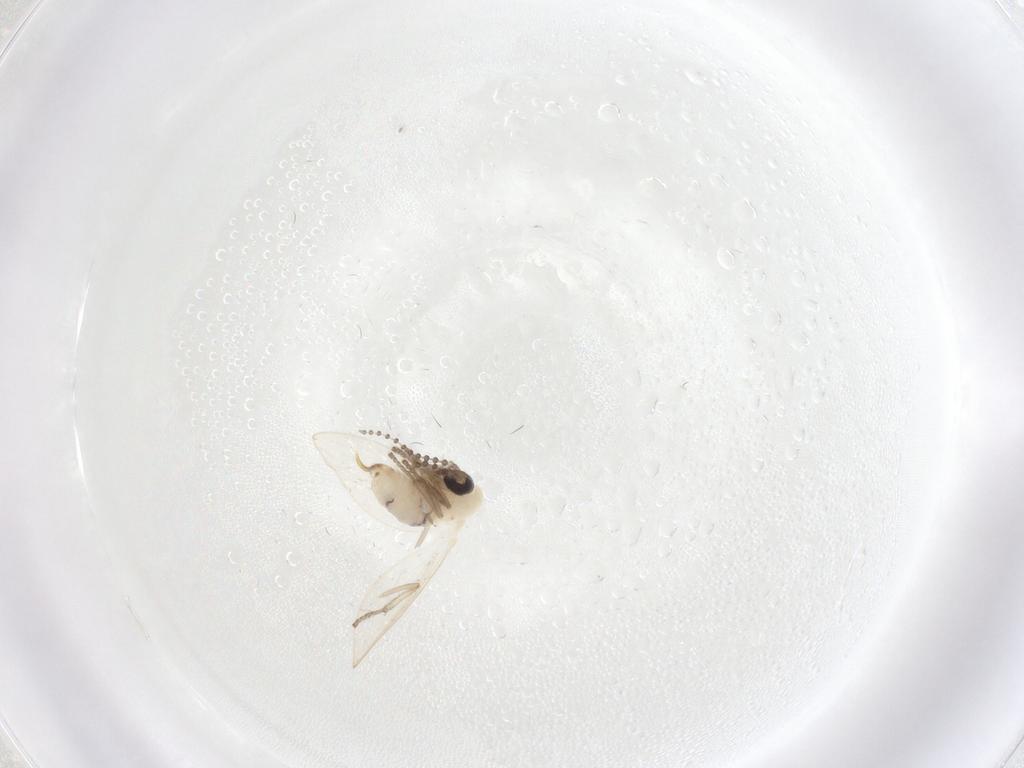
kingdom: Animalia
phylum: Arthropoda
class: Insecta
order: Diptera
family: Psychodidae
